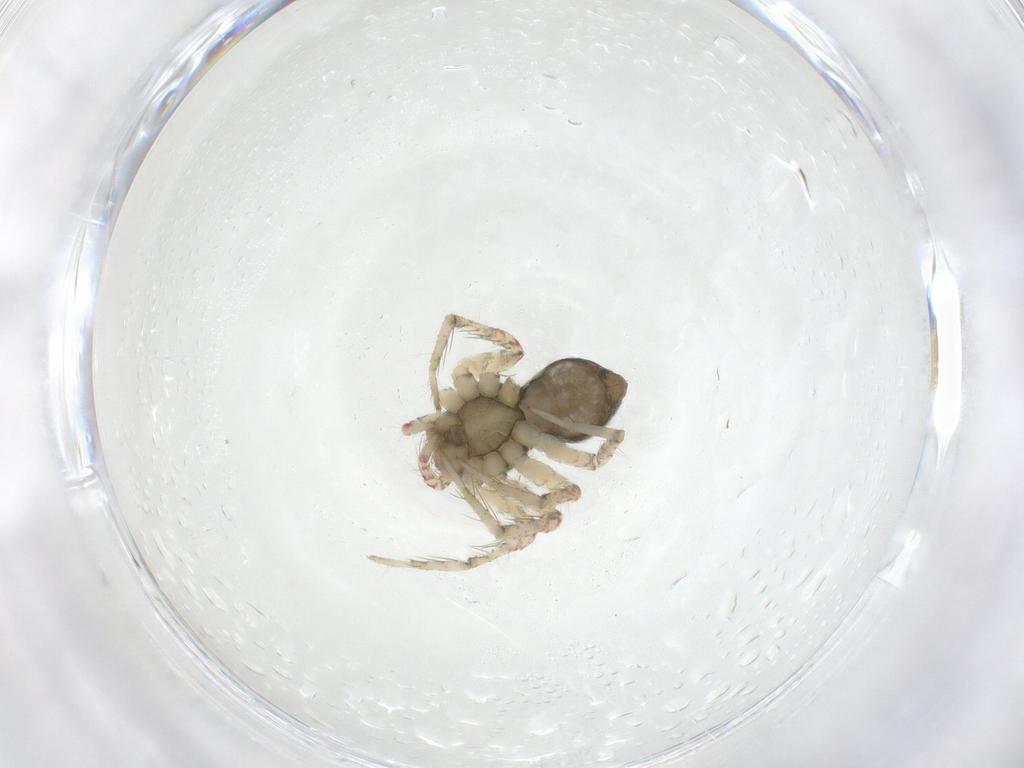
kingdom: Animalia
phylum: Arthropoda
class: Arachnida
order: Araneae
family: Pisauridae
